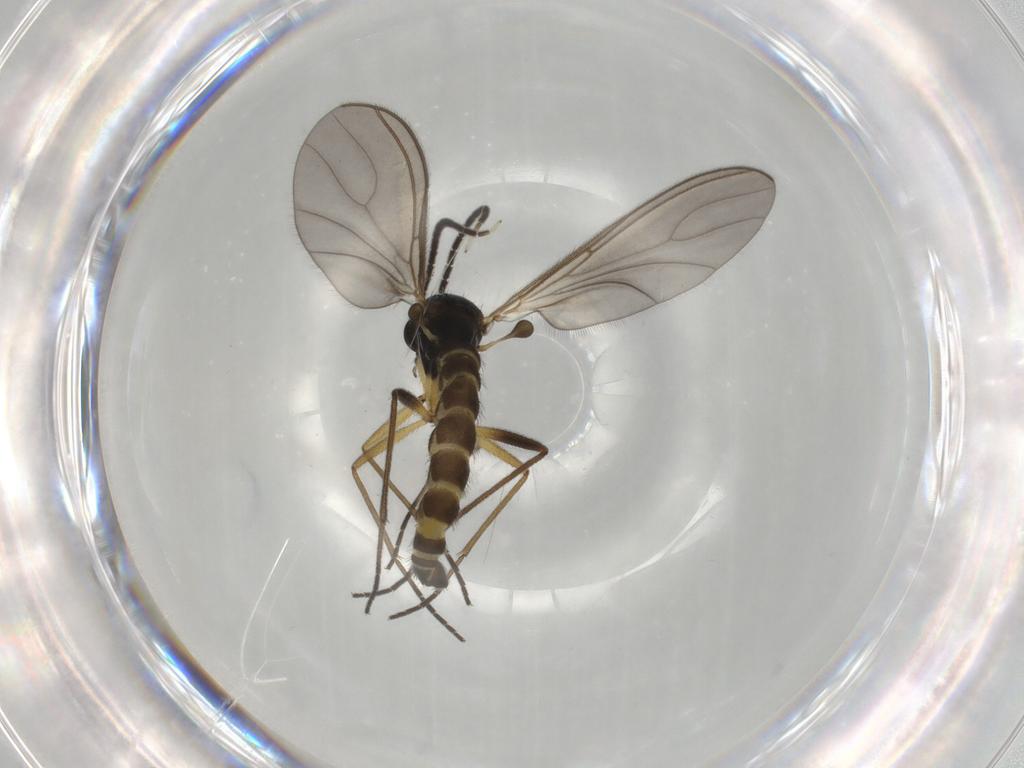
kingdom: Animalia
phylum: Arthropoda
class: Insecta
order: Diptera
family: Sciaridae
